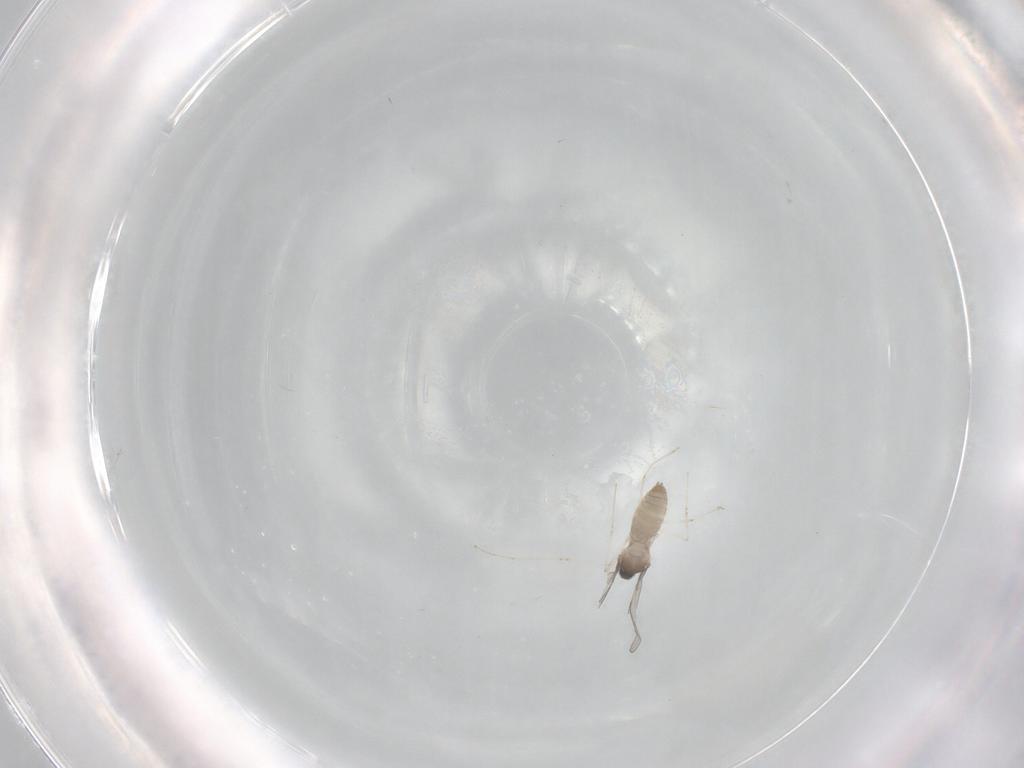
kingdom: Animalia
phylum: Arthropoda
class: Insecta
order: Diptera
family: Cecidomyiidae
